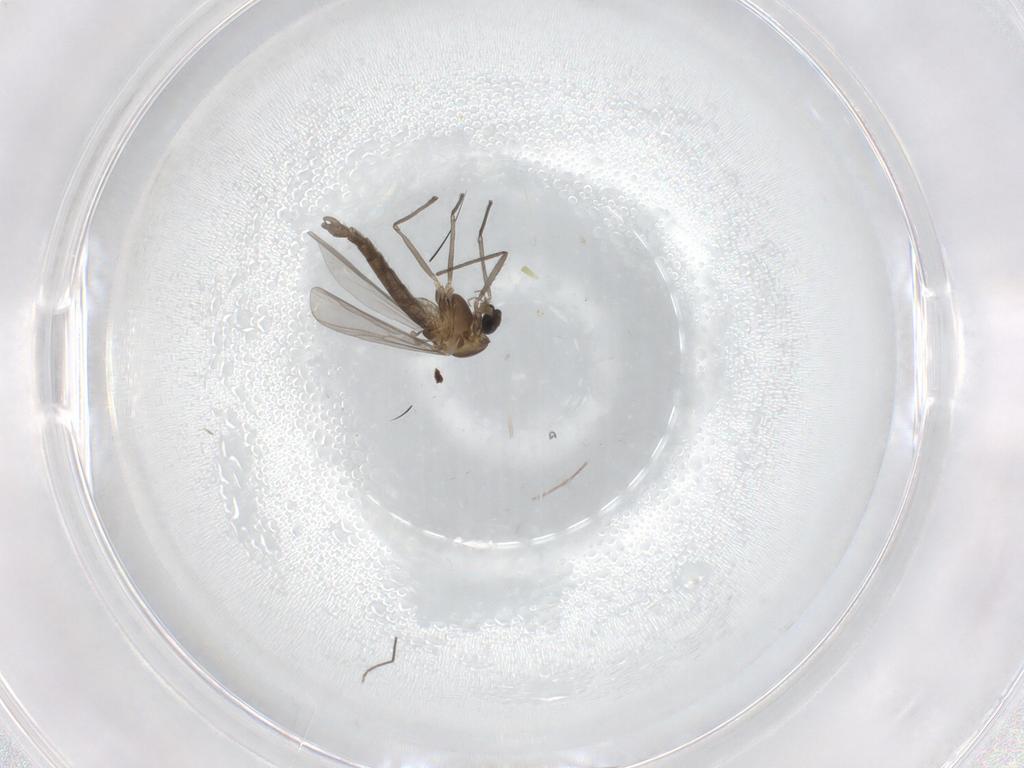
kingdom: Animalia
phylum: Arthropoda
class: Insecta
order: Diptera
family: Chironomidae
